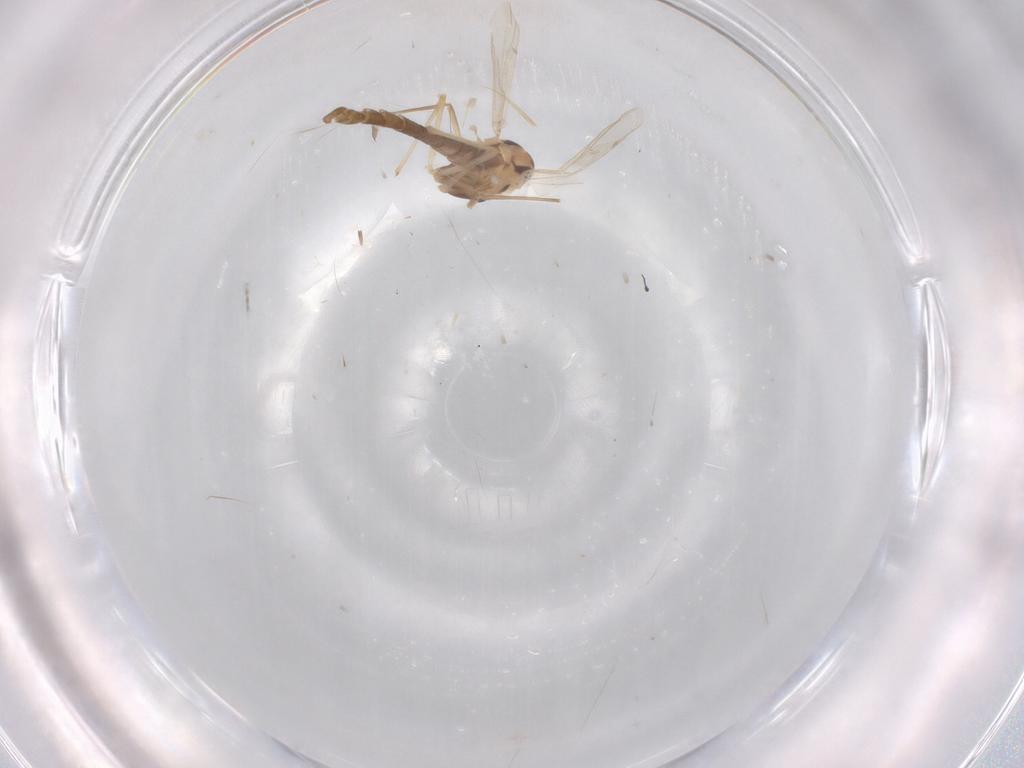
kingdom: Animalia
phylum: Arthropoda
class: Insecta
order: Diptera
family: Chironomidae
